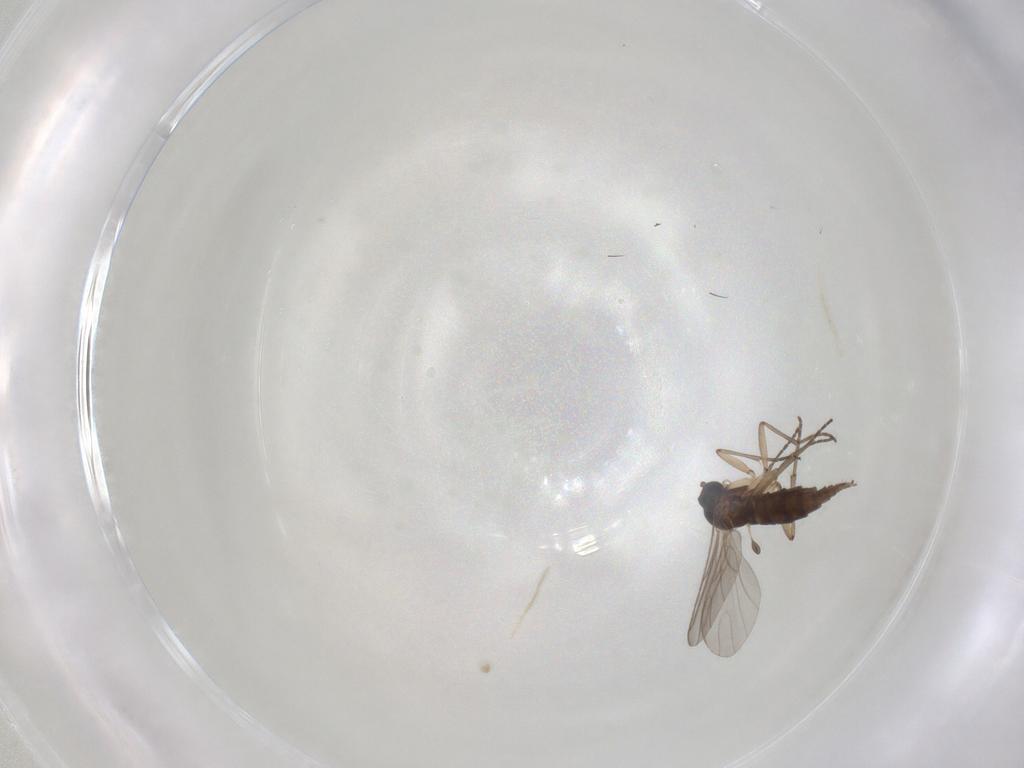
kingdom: Animalia
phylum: Arthropoda
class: Insecta
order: Diptera
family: Sciaridae
